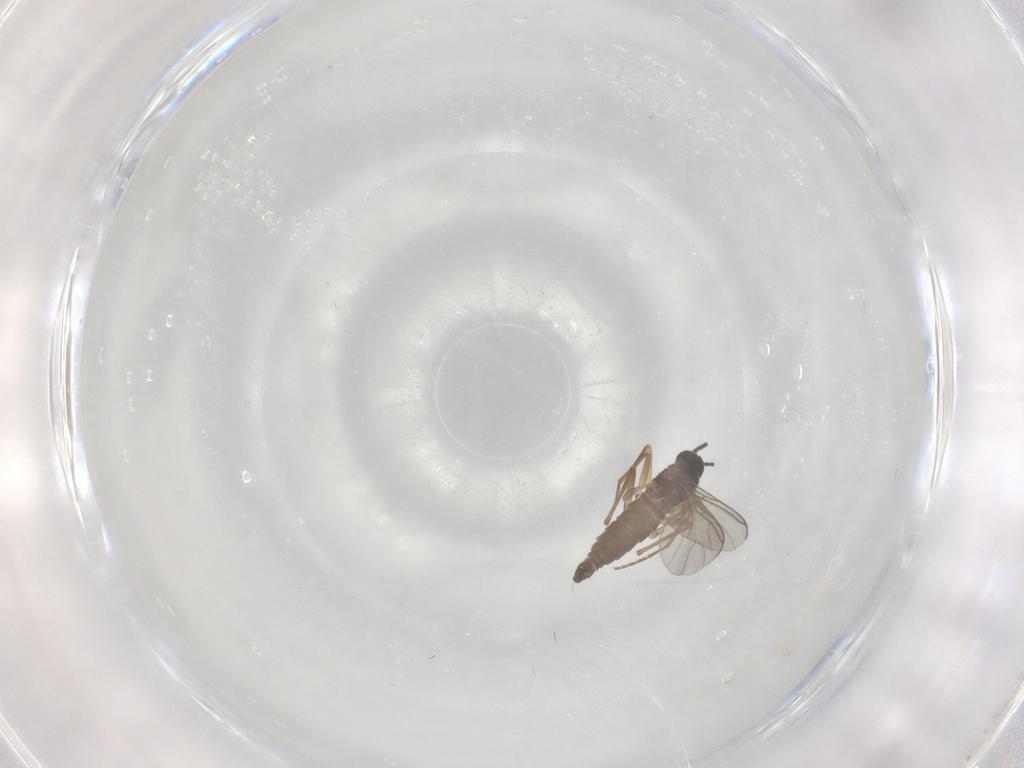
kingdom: Animalia
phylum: Arthropoda
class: Insecta
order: Diptera
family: Sciaridae
